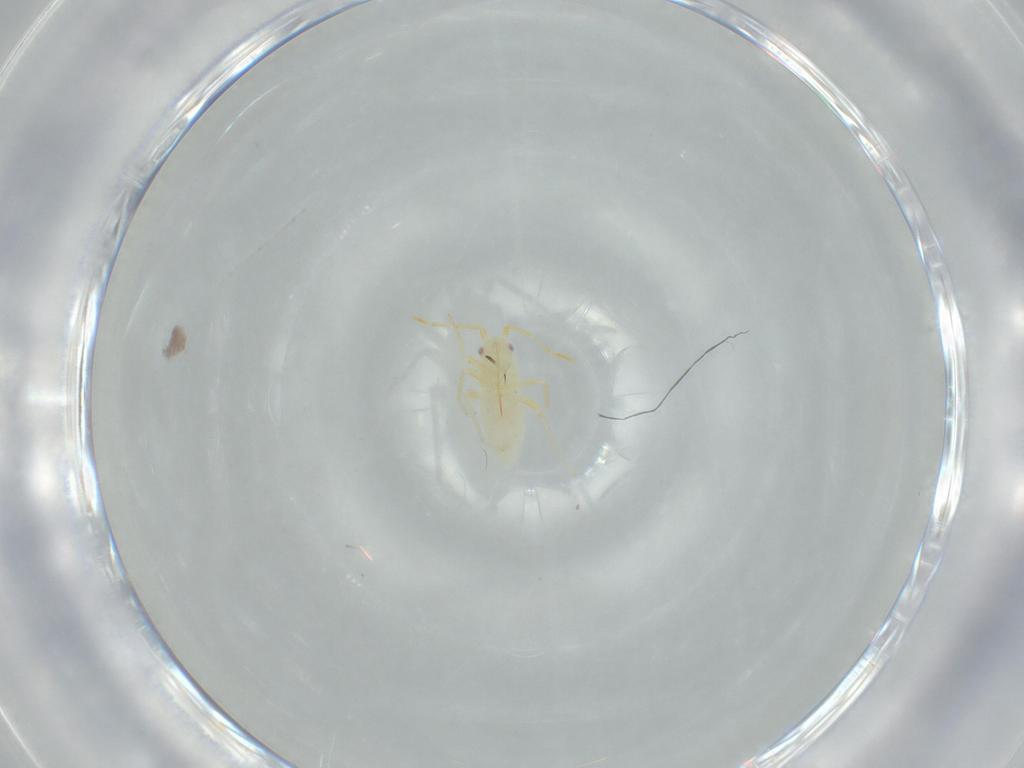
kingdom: Animalia
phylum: Arthropoda
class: Insecta
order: Hemiptera
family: Miridae
